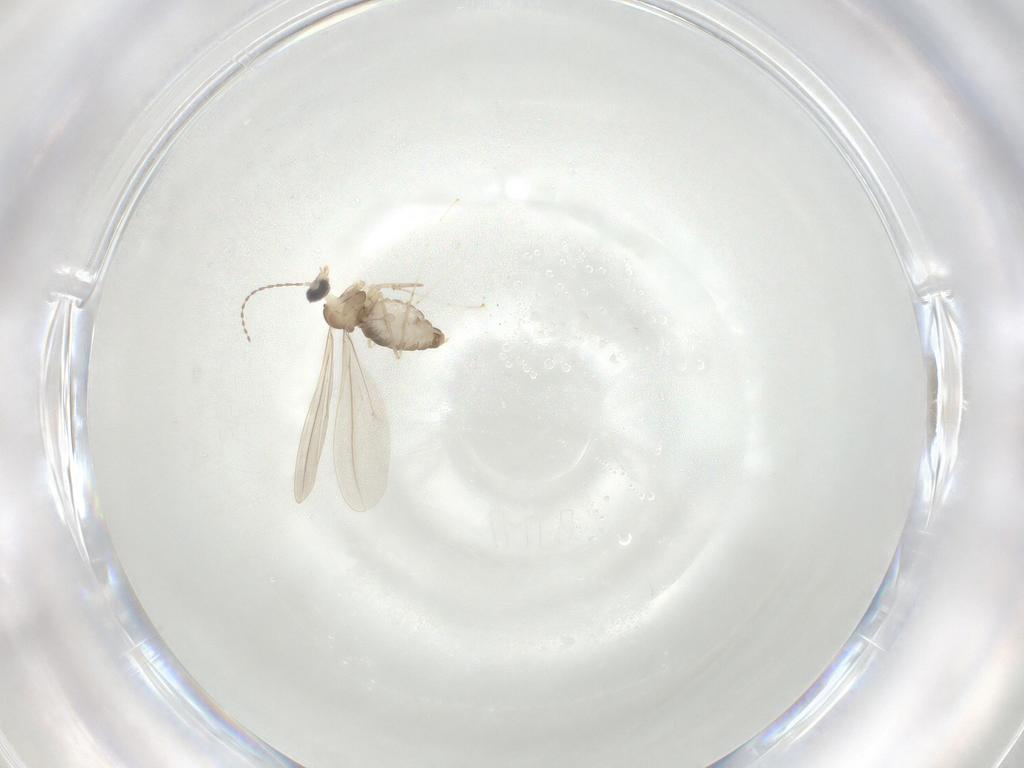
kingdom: Animalia
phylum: Arthropoda
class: Insecta
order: Diptera
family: Cecidomyiidae
